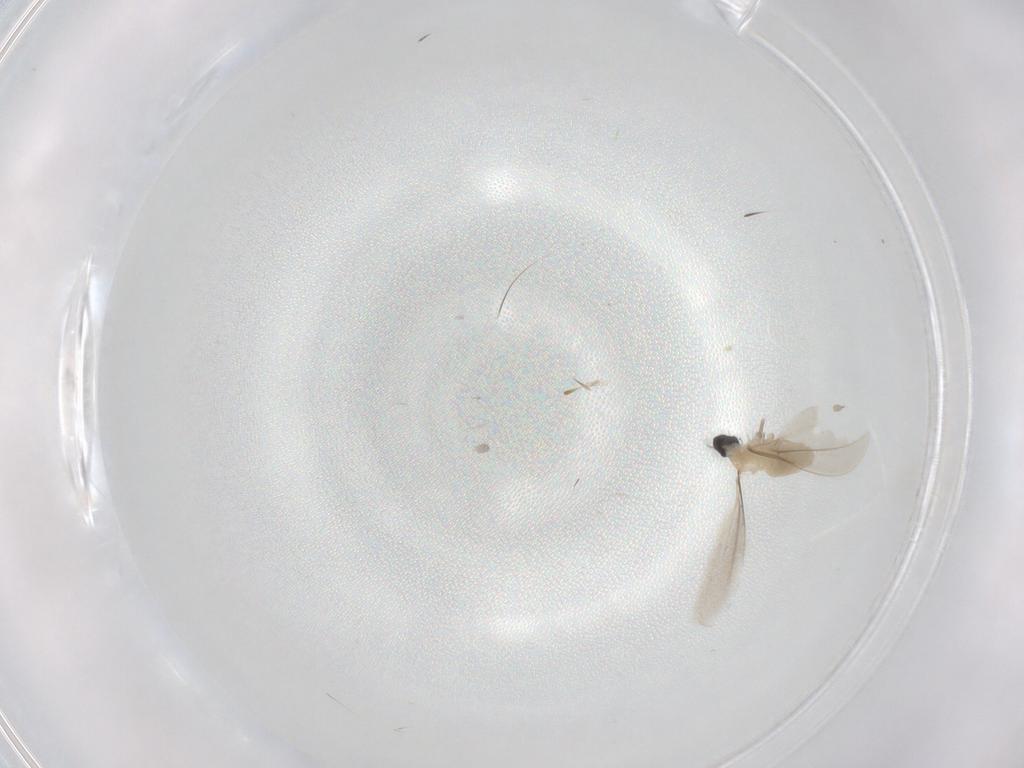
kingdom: Animalia
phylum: Arthropoda
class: Insecta
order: Diptera
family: Cecidomyiidae
